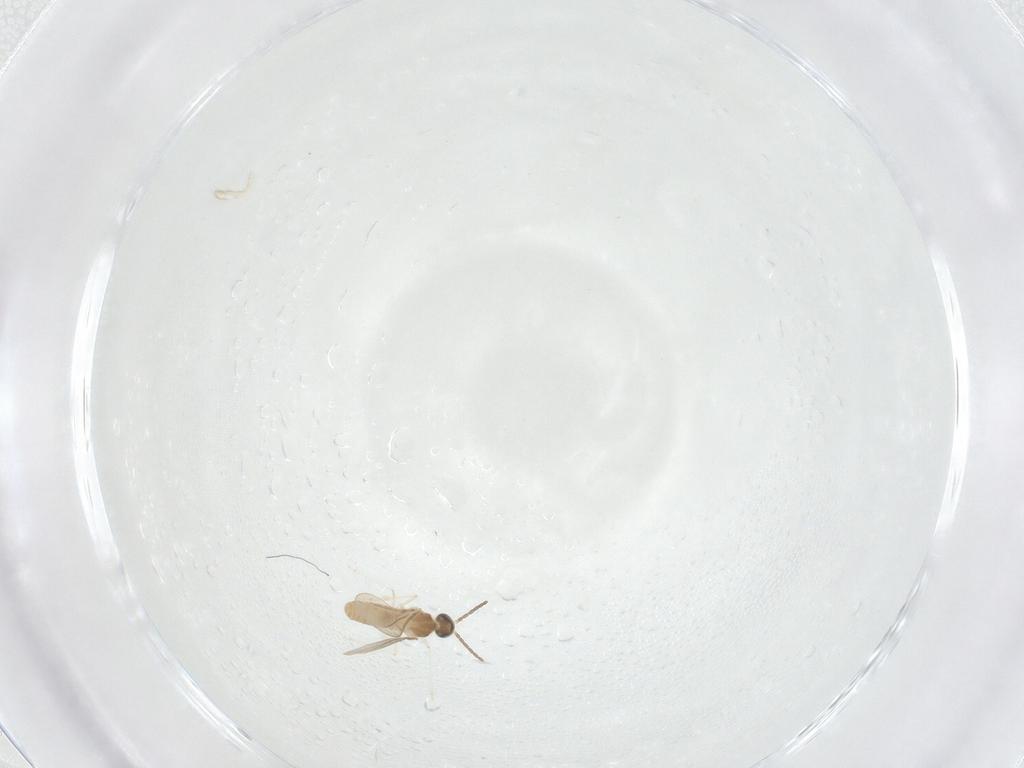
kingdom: Animalia
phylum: Arthropoda
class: Insecta
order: Diptera
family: Cecidomyiidae
